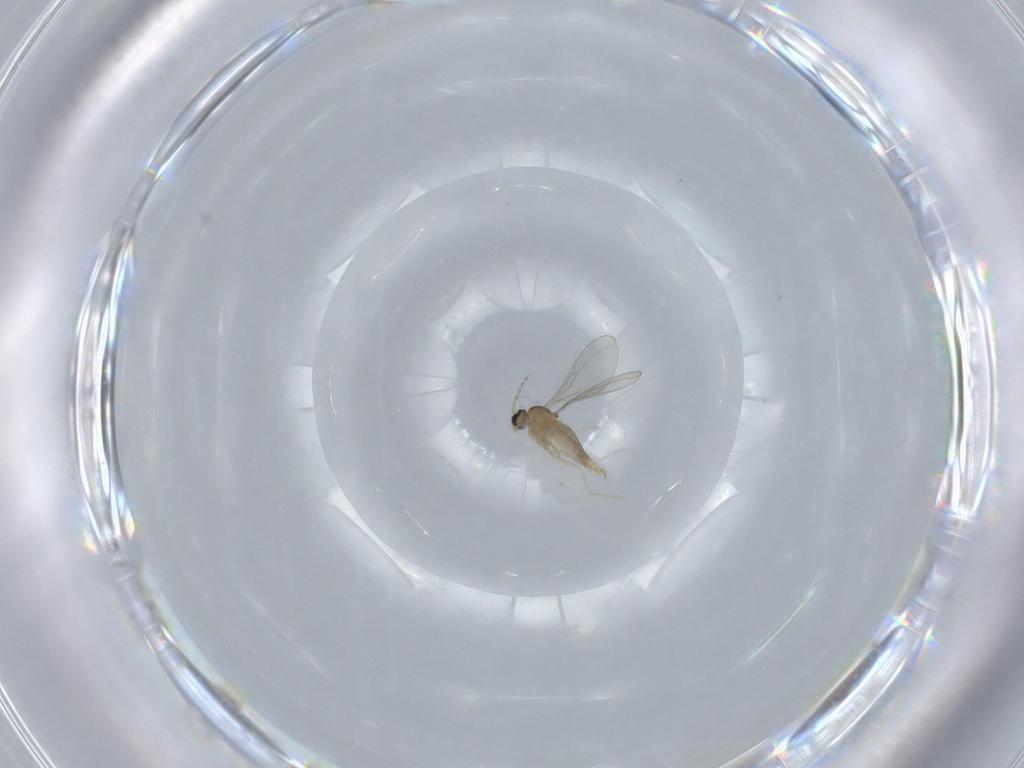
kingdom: Animalia
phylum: Arthropoda
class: Insecta
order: Diptera
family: Cecidomyiidae
